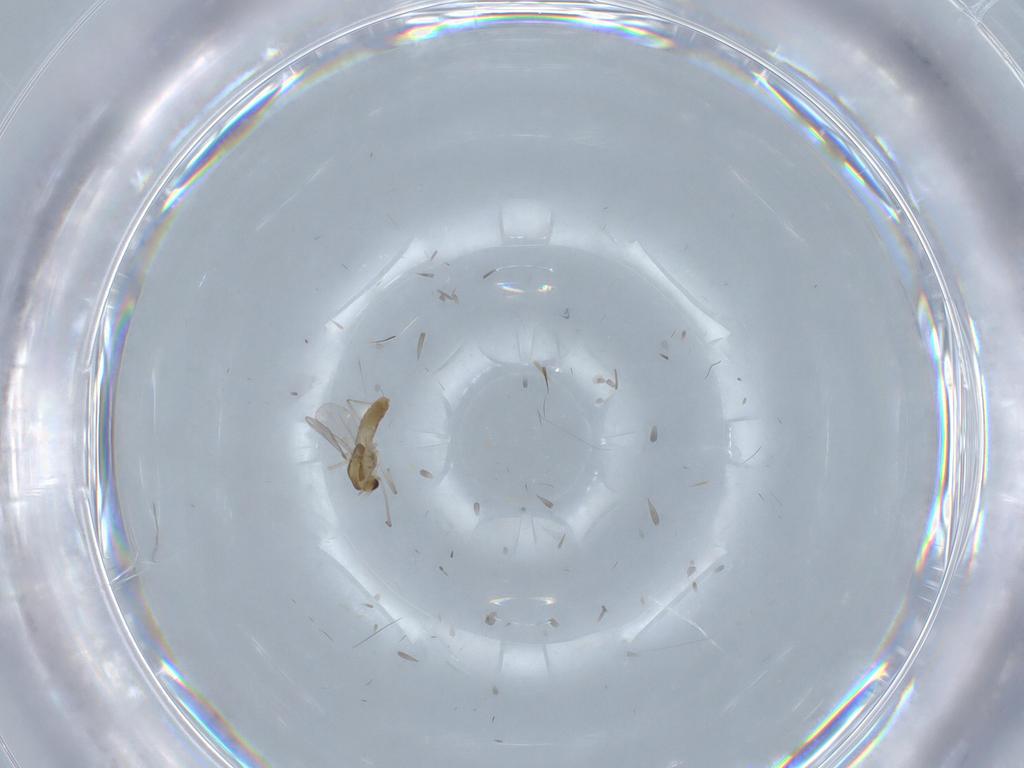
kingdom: Animalia
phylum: Arthropoda
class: Insecta
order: Diptera
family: Chironomidae
